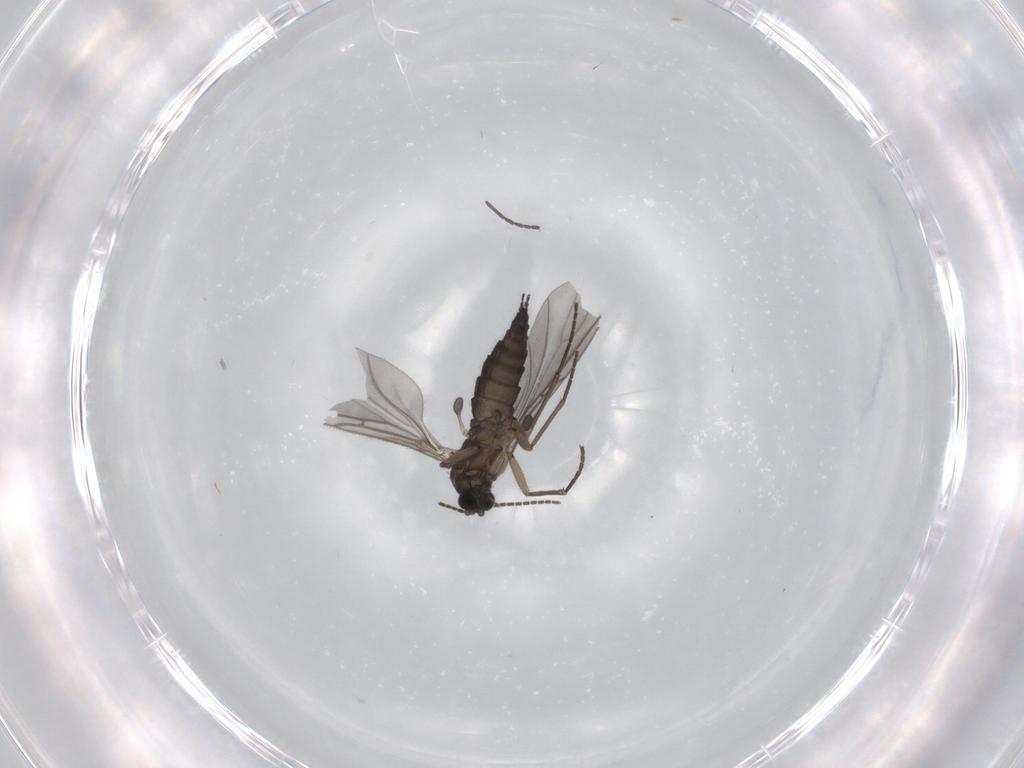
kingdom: Animalia
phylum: Arthropoda
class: Insecta
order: Diptera
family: Sciaridae
